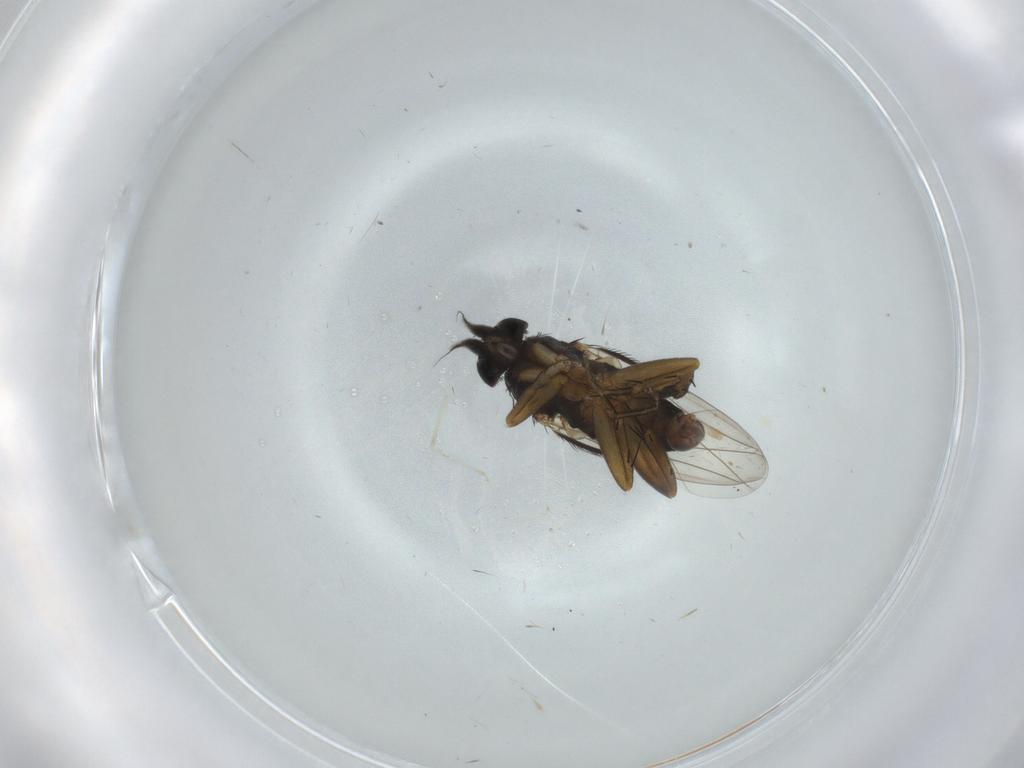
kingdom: Animalia
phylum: Arthropoda
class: Insecta
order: Diptera
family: Phoridae
